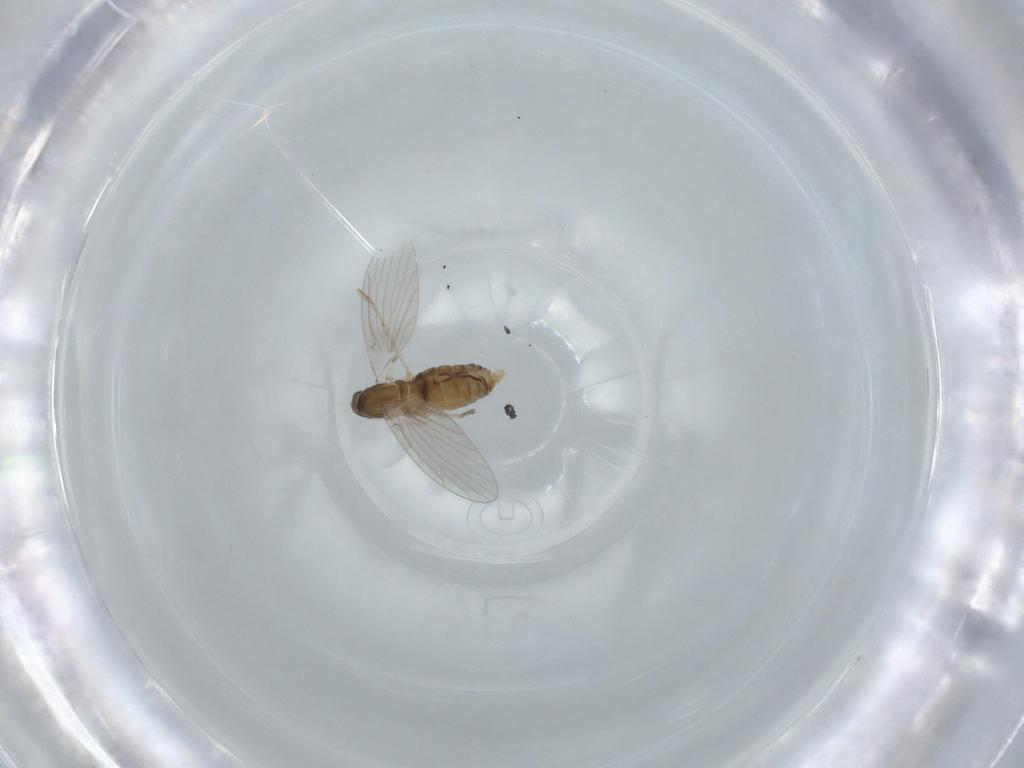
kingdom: Animalia
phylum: Arthropoda
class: Insecta
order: Diptera
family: Psychodidae
